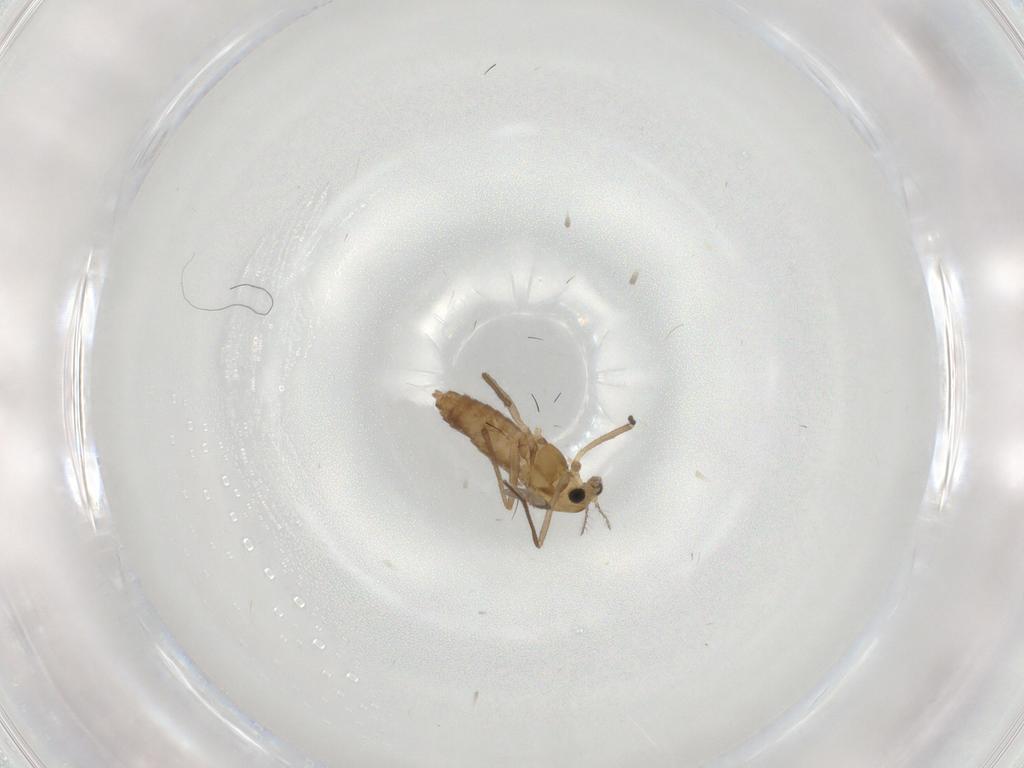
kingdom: Animalia
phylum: Arthropoda
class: Insecta
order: Diptera
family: Chironomidae
